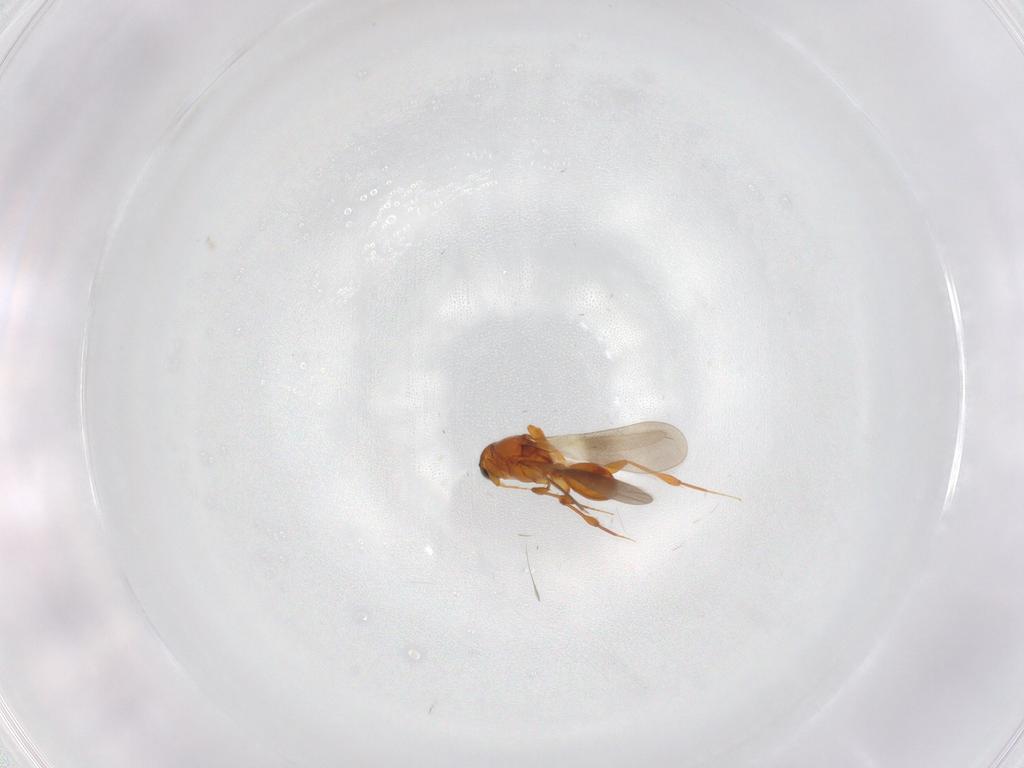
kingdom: Animalia
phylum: Arthropoda
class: Insecta
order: Hymenoptera
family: Platygastridae
